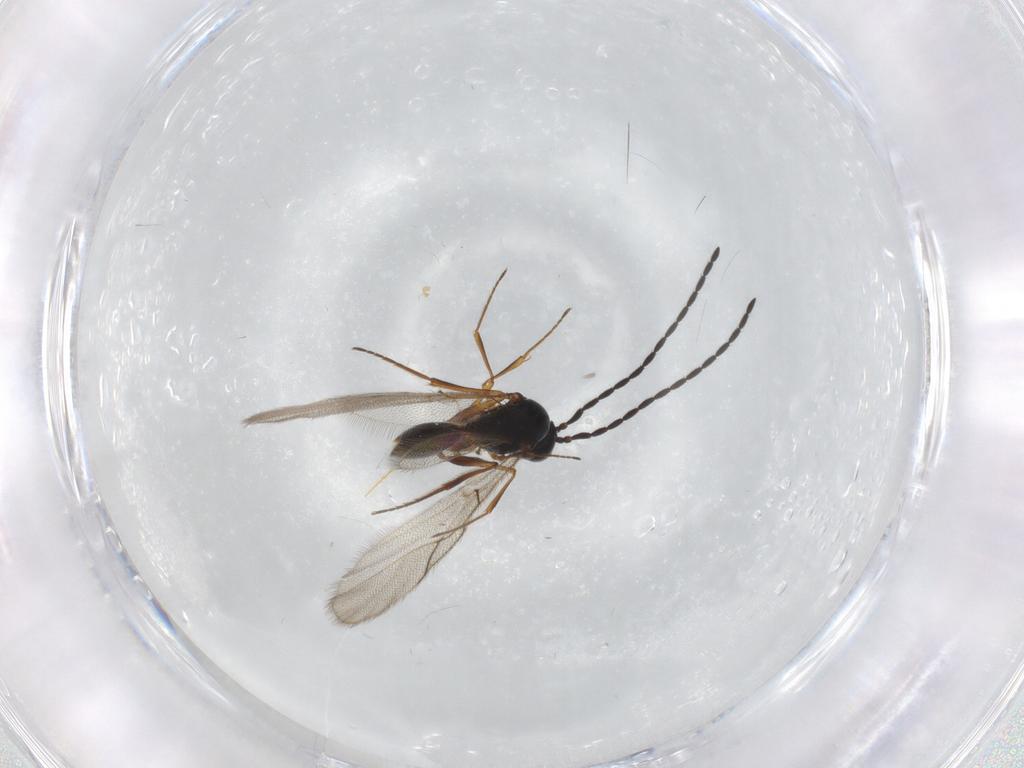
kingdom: Animalia
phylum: Arthropoda
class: Insecta
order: Hymenoptera
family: Figitidae
